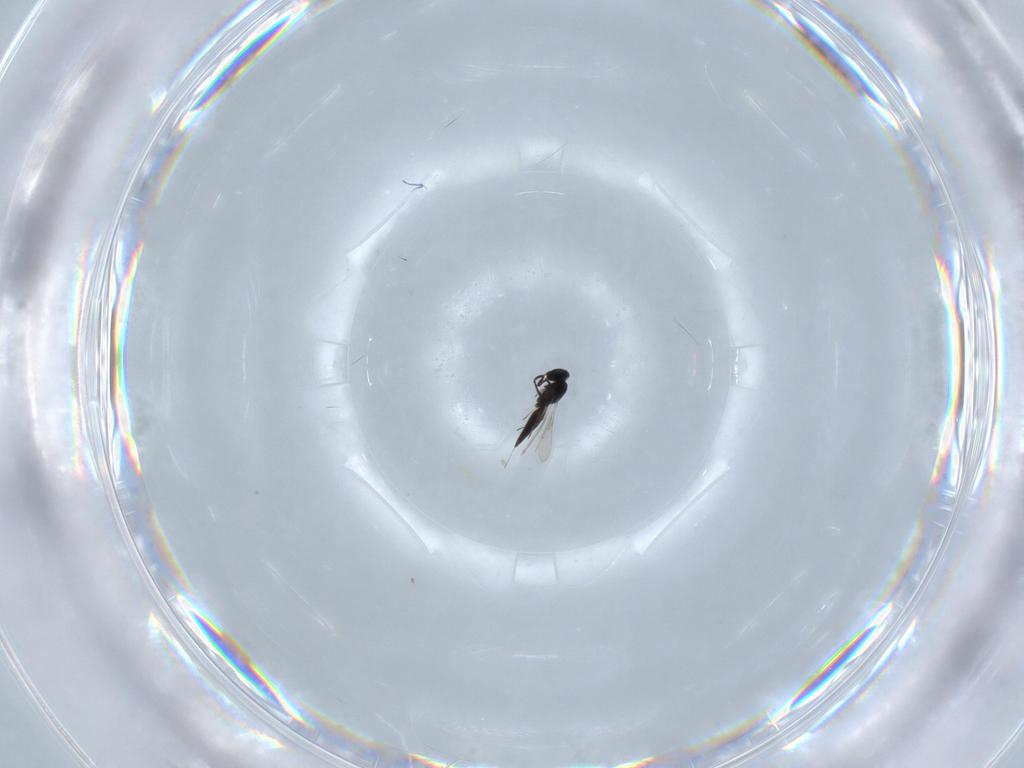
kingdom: Animalia
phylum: Arthropoda
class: Insecta
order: Hymenoptera
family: Scelionidae
